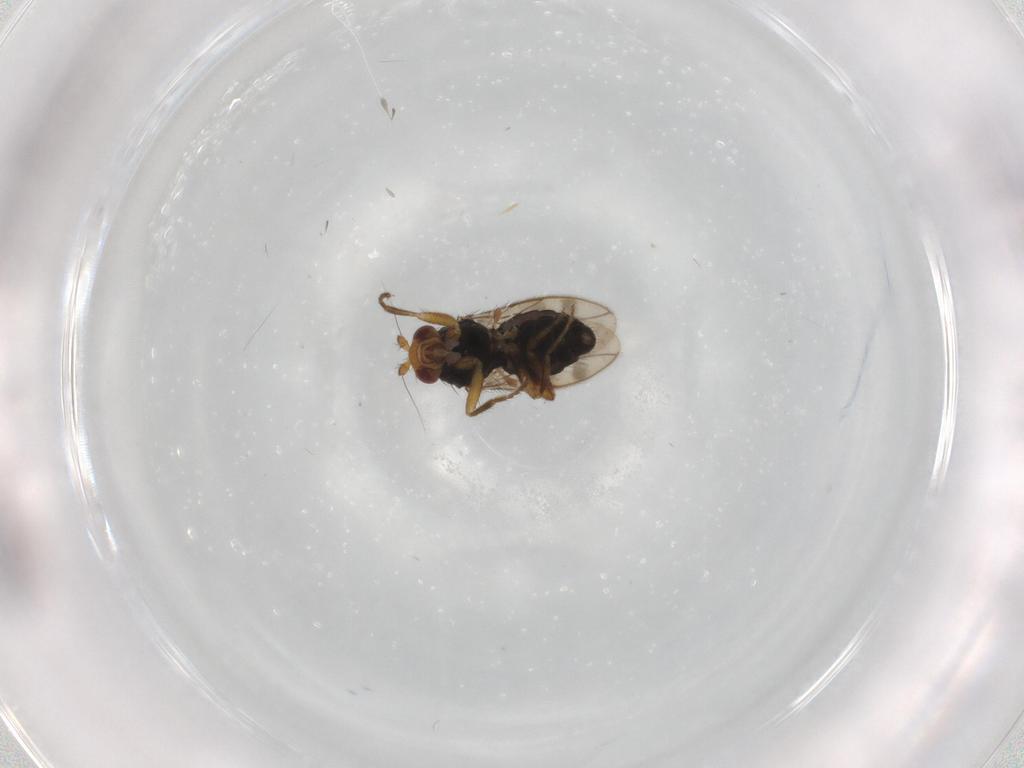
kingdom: Animalia
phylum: Arthropoda
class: Insecta
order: Diptera
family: Sphaeroceridae
